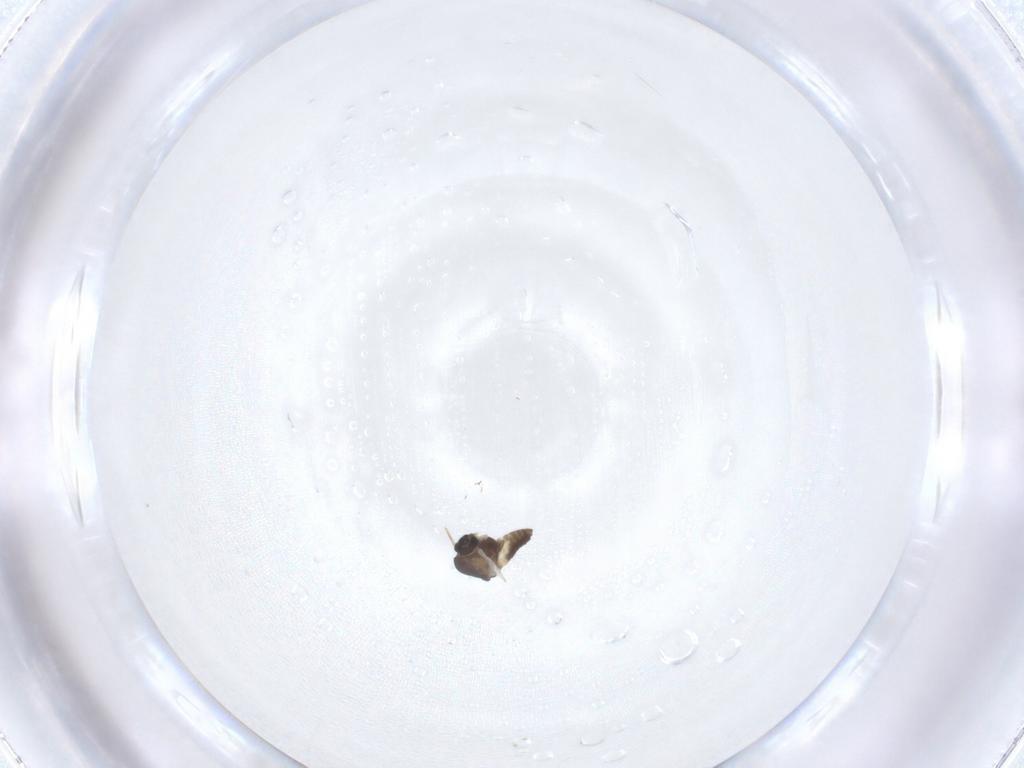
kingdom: Animalia
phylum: Arthropoda
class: Insecta
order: Diptera
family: Chironomidae
